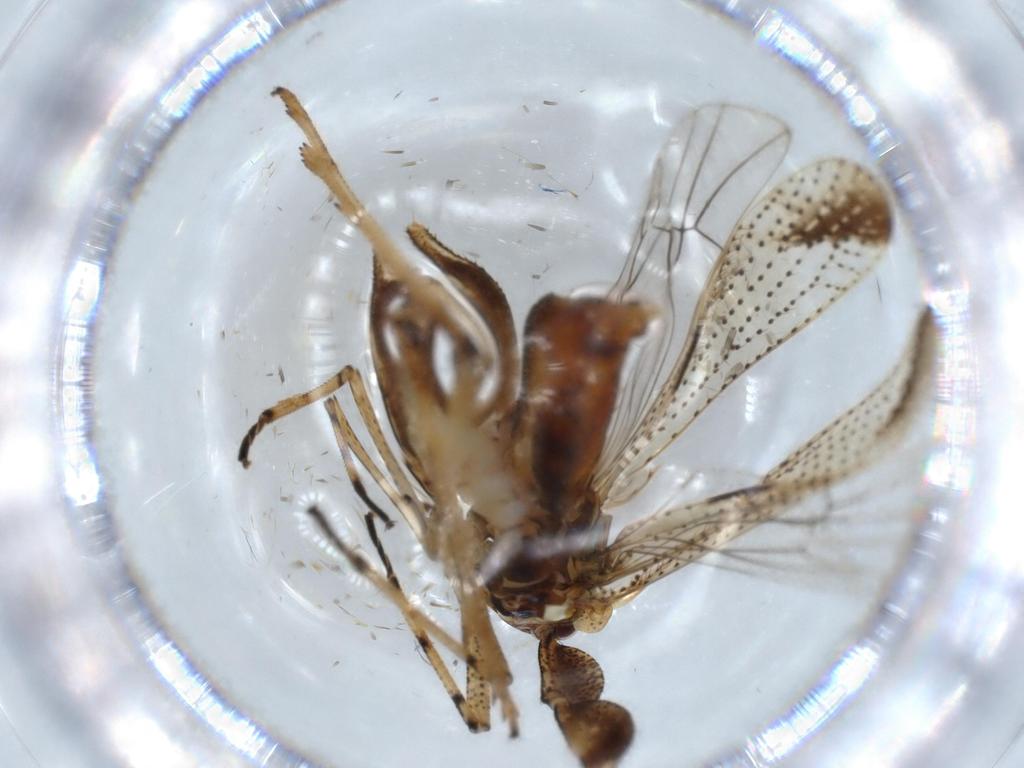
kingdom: Animalia
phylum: Arthropoda
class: Insecta
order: Hemiptera
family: Cicadellidae
